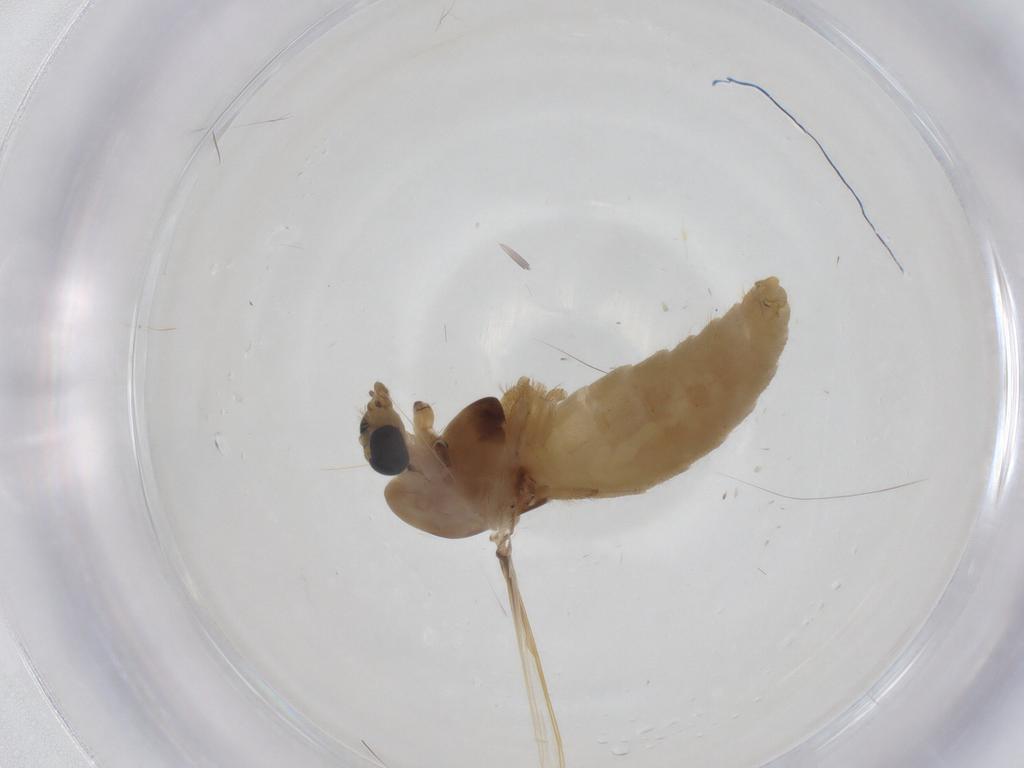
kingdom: Animalia
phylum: Arthropoda
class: Insecta
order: Diptera
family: Chironomidae
